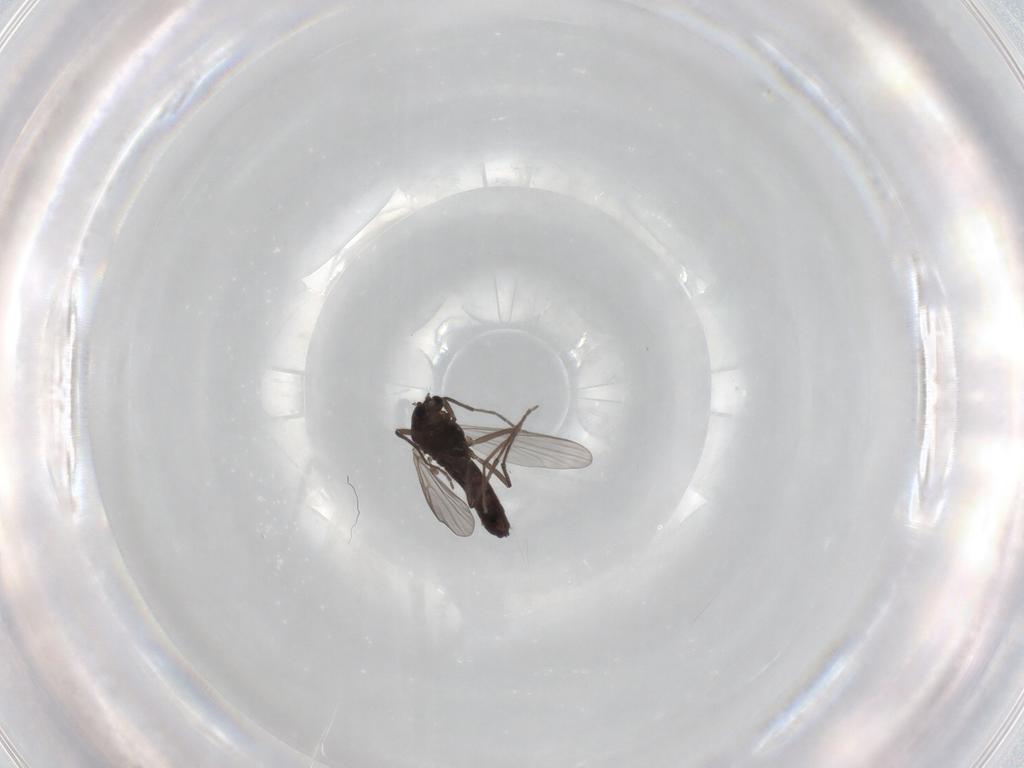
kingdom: Animalia
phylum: Arthropoda
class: Insecta
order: Diptera
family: Chironomidae
